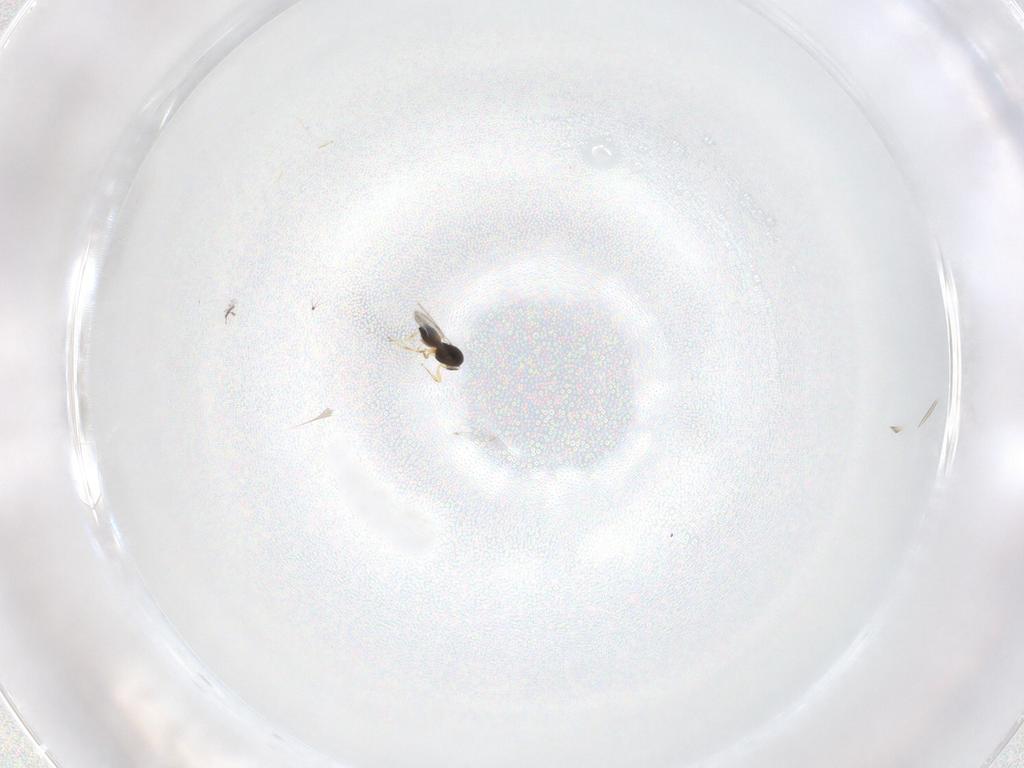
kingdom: Animalia
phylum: Arthropoda
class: Insecta
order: Hymenoptera
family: Scelionidae
